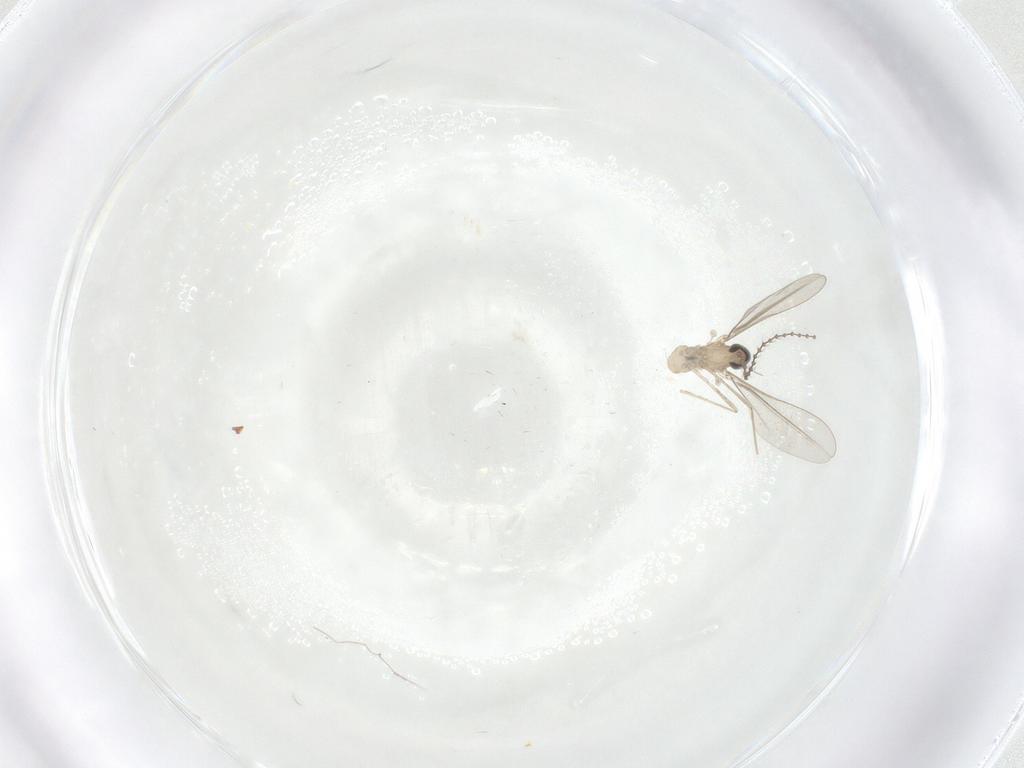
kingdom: Animalia
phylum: Arthropoda
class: Insecta
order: Diptera
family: Cecidomyiidae
